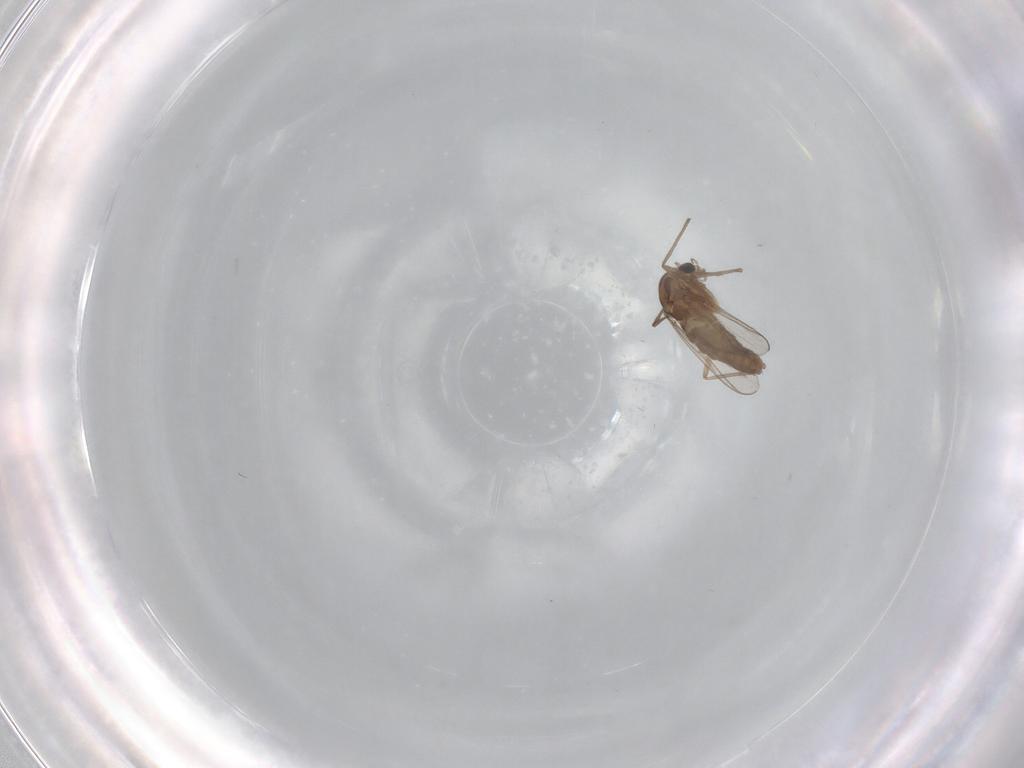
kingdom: Animalia
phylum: Arthropoda
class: Insecta
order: Diptera
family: Chironomidae
